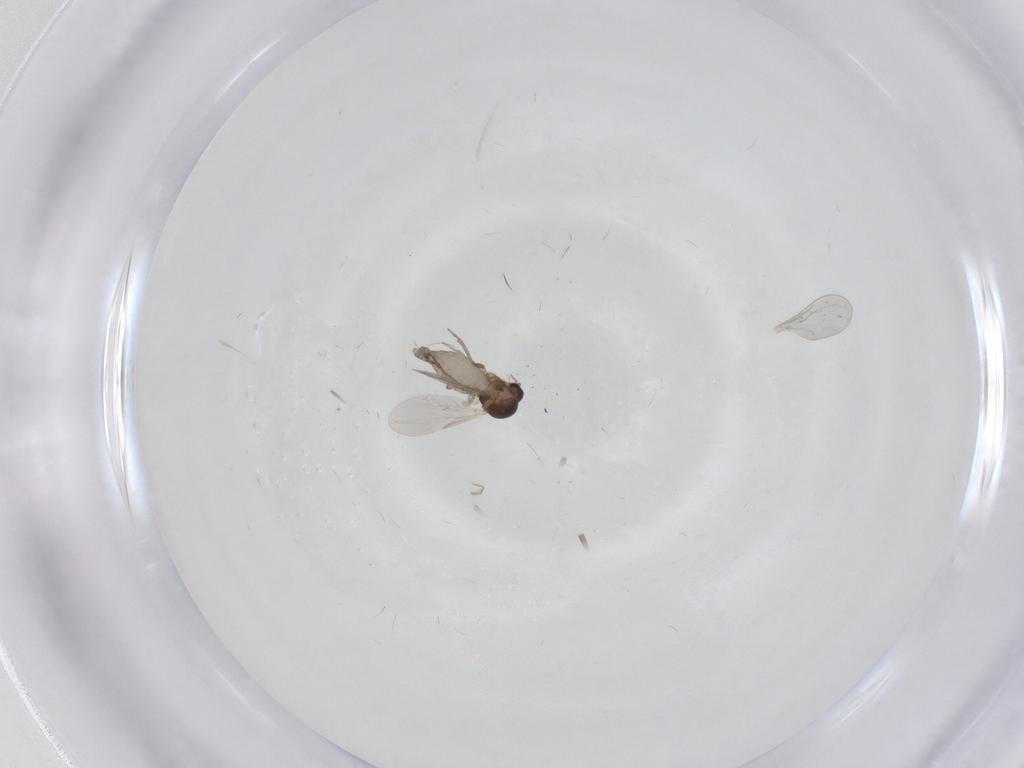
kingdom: Animalia
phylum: Arthropoda
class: Insecta
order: Diptera
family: Cecidomyiidae
